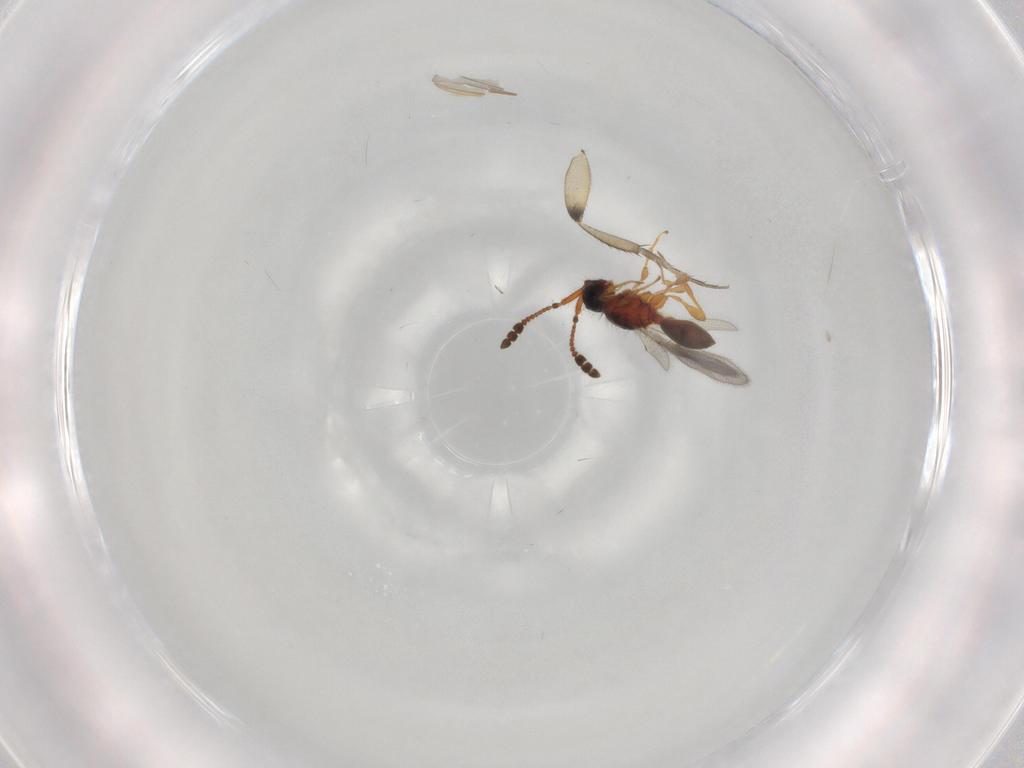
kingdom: Animalia
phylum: Arthropoda
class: Insecta
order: Hymenoptera
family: Diapriidae
